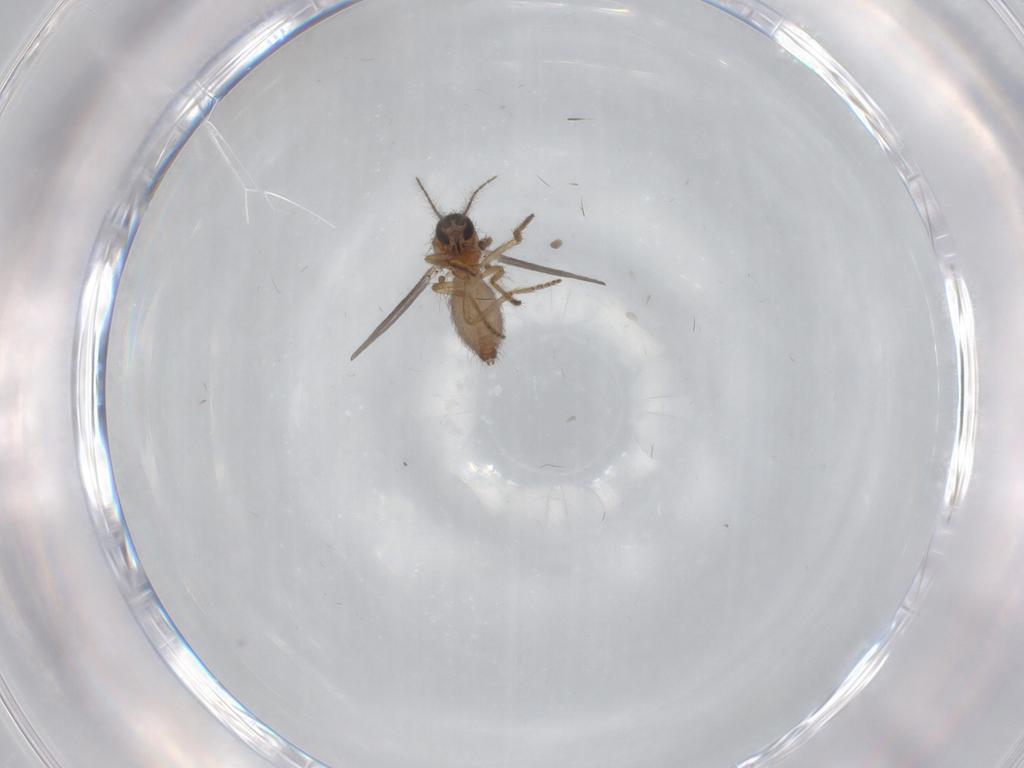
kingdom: Animalia
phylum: Arthropoda
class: Insecta
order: Diptera
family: Ceratopogonidae
